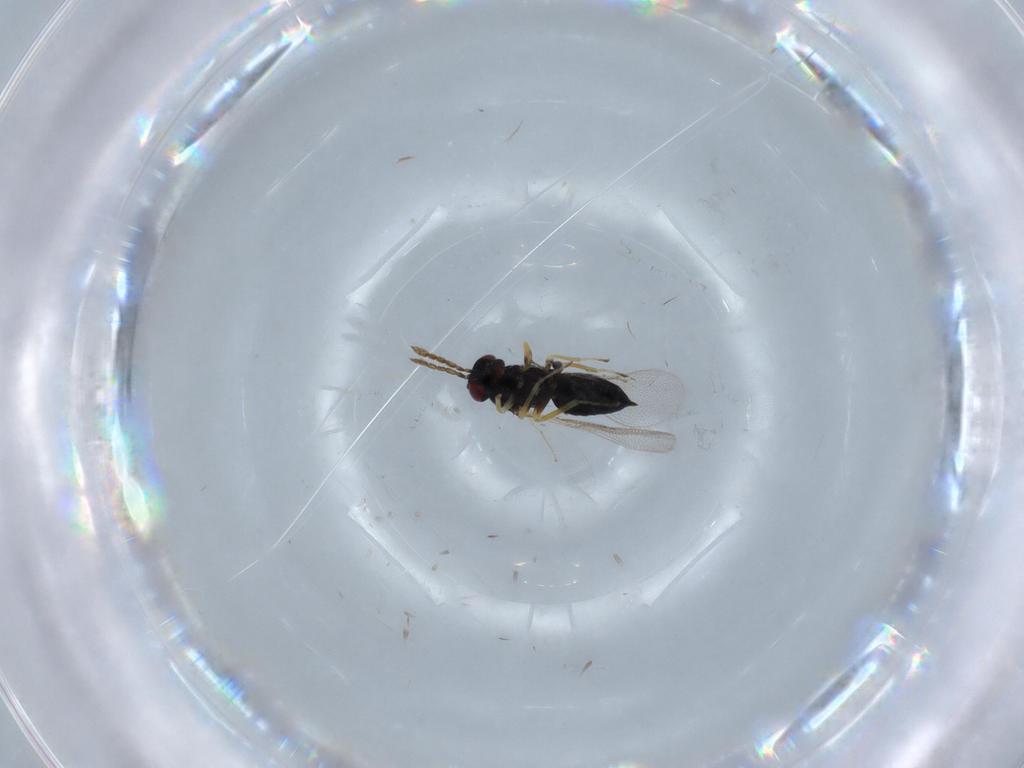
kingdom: Animalia
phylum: Arthropoda
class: Insecta
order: Hymenoptera
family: Eulophidae
